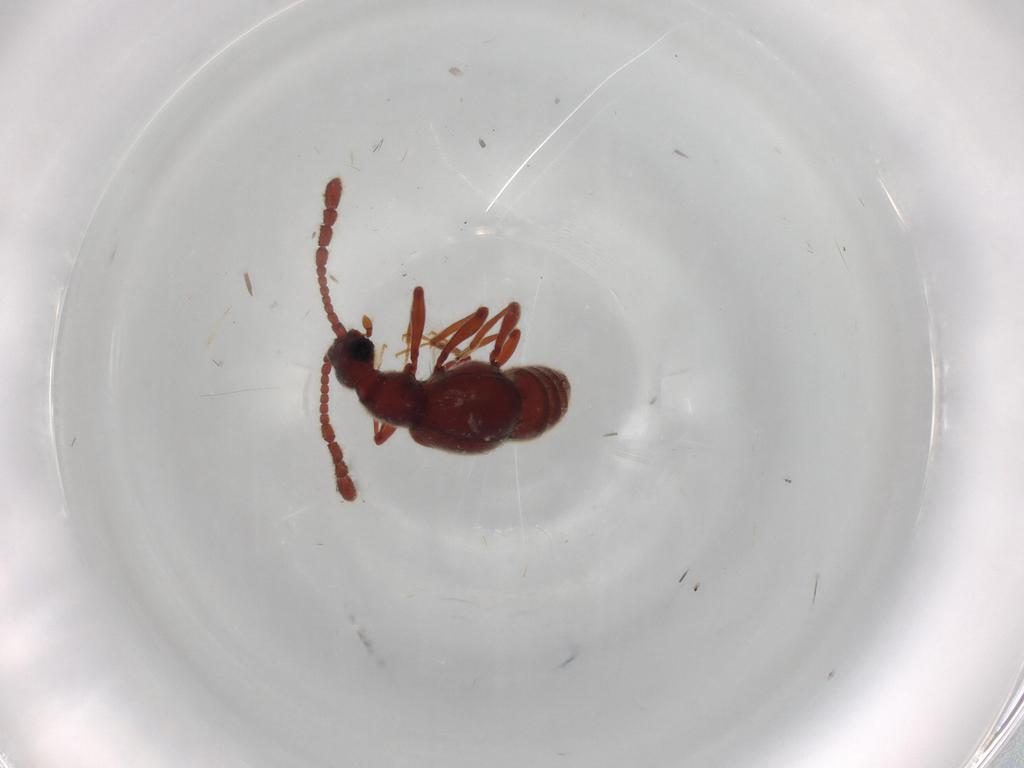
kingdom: Animalia
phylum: Arthropoda
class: Insecta
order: Coleoptera
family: Staphylinidae
